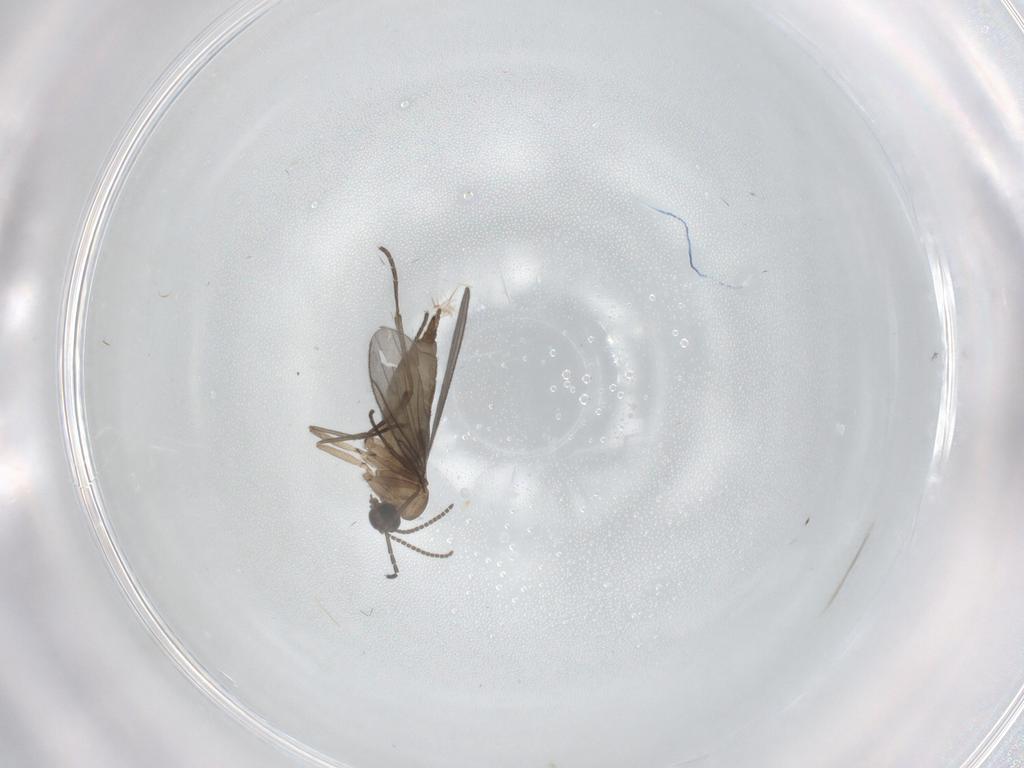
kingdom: Animalia
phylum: Arthropoda
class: Insecta
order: Diptera
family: Sciaridae
